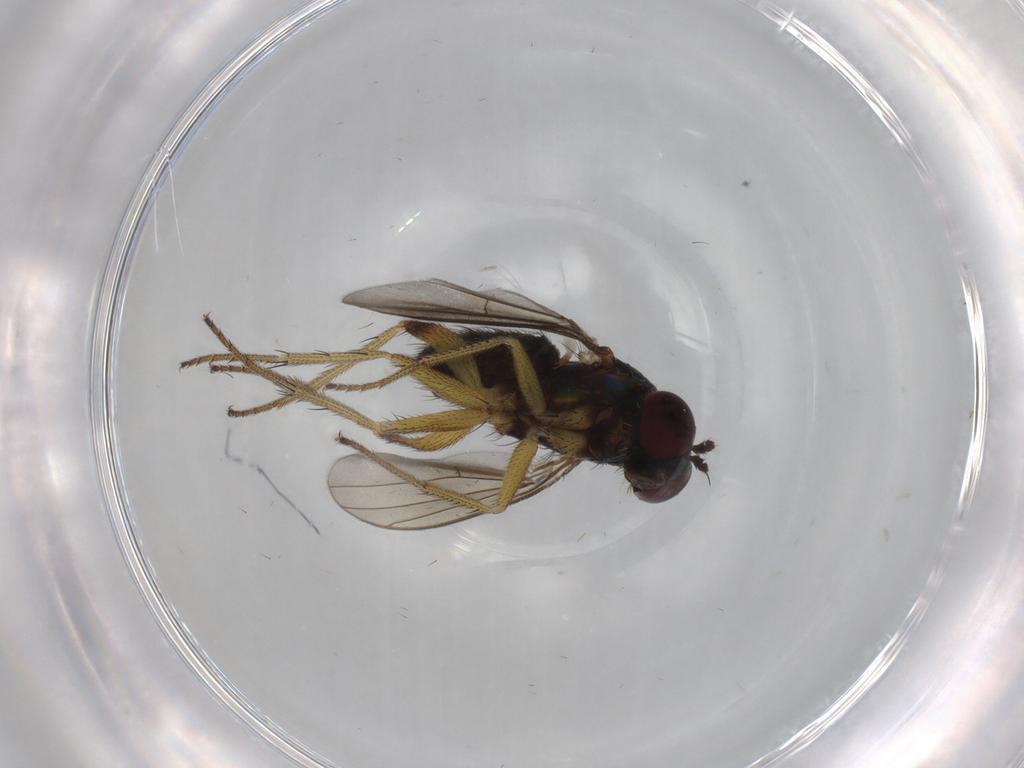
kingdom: Animalia
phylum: Arthropoda
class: Insecta
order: Diptera
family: Dolichopodidae
